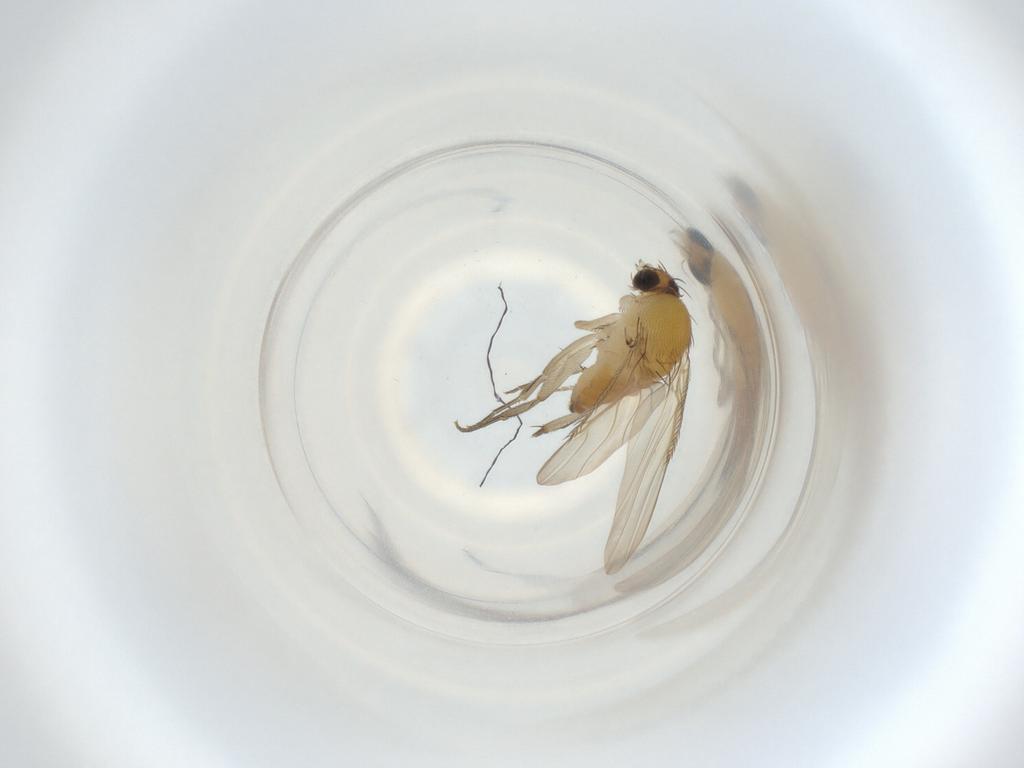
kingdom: Animalia
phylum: Arthropoda
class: Insecta
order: Diptera
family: Phoridae
